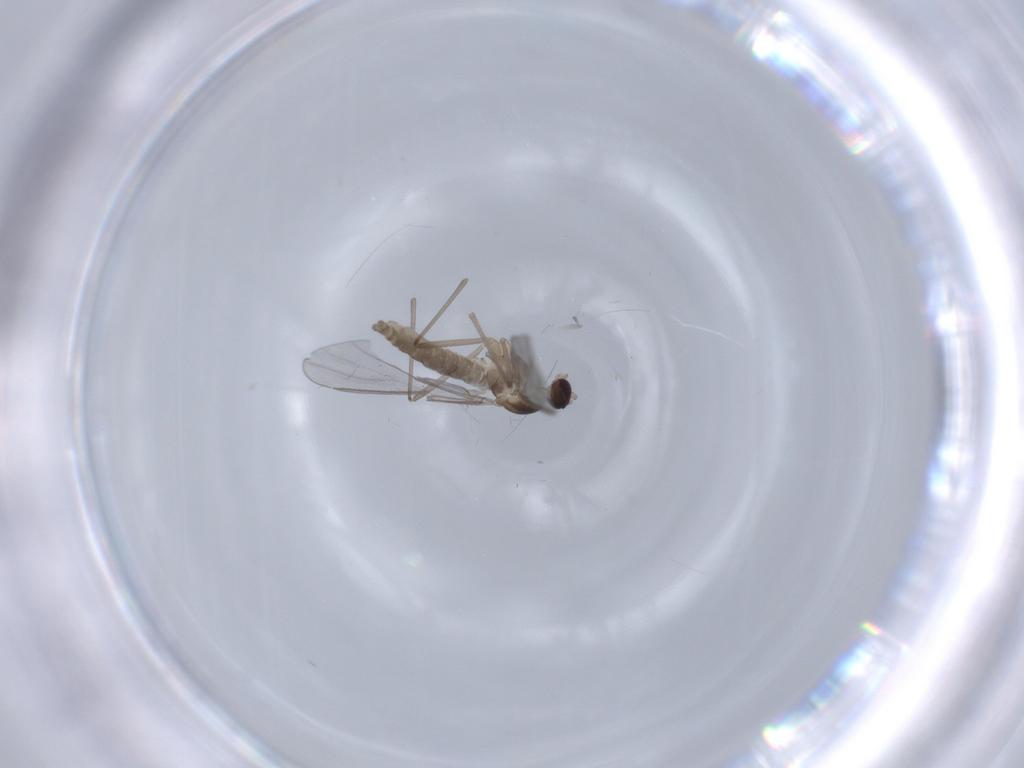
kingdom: Animalia
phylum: Arthropoda
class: Insecta
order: Diptera
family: Cecidomyiidae
